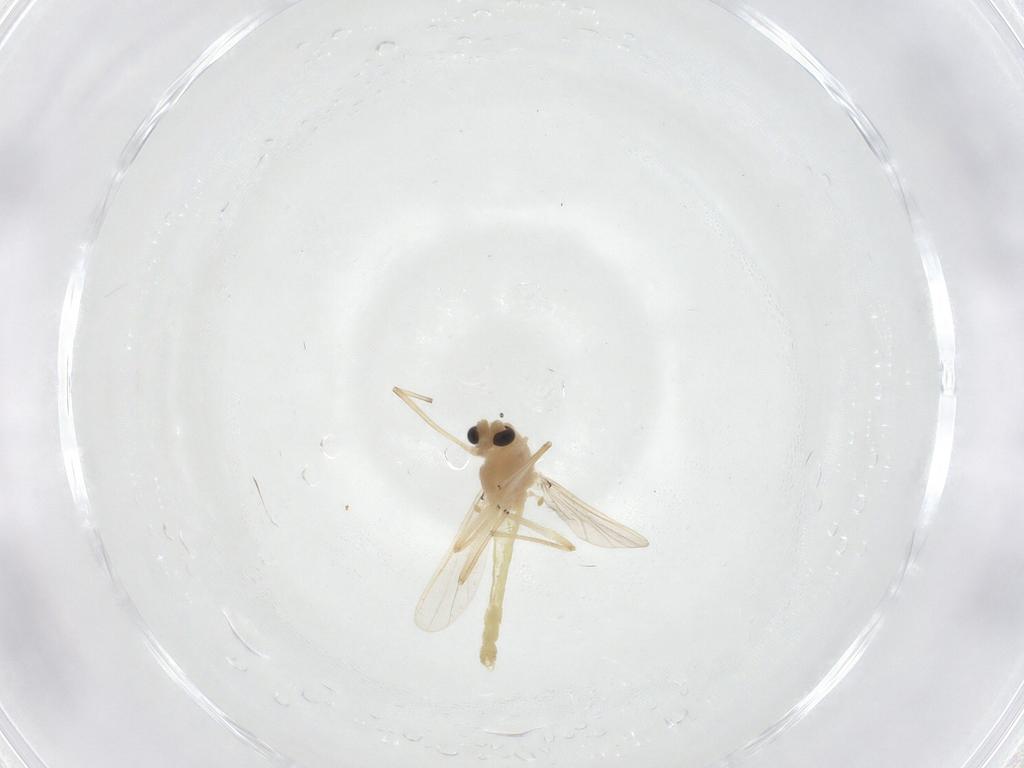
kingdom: Animalia
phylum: Arthropoda
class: Insecta
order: Diptera
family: Chironomidae
